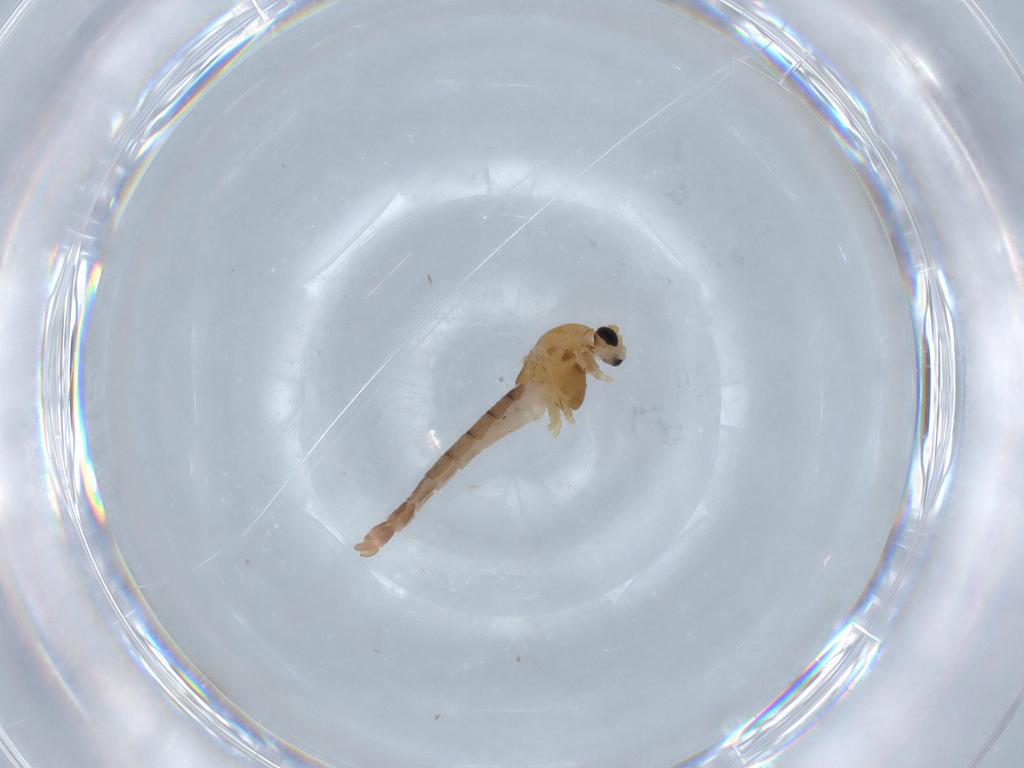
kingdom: Animalia
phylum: Arthropoda
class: Insecta
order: Diptera
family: Chironomidae
